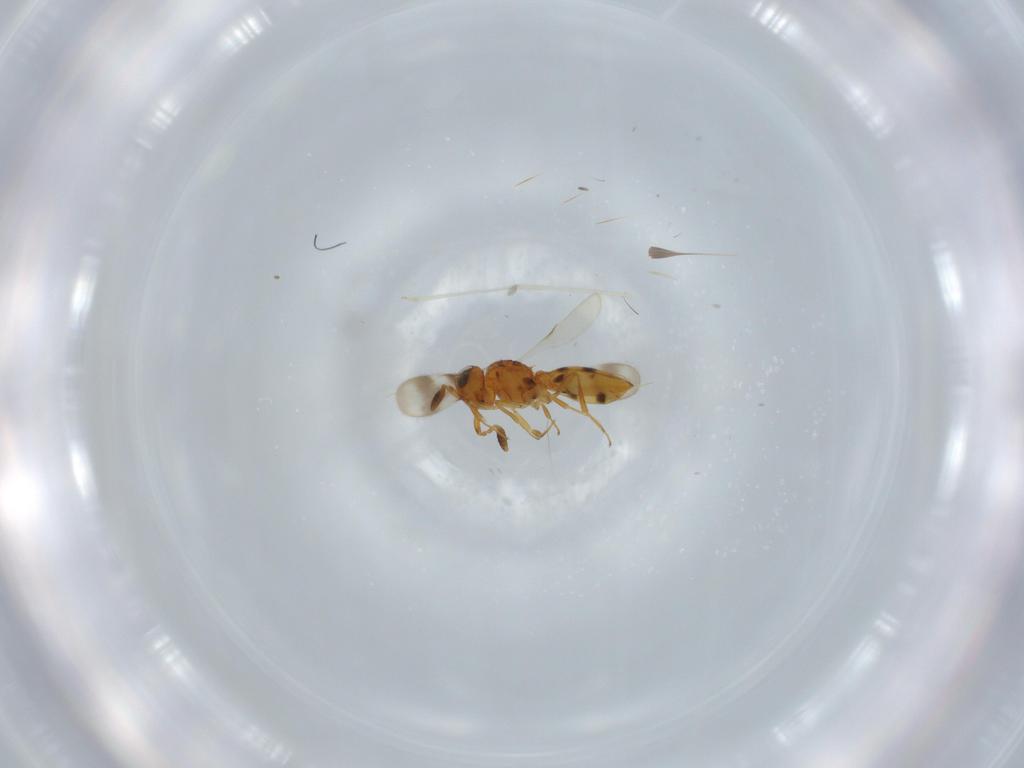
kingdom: Animalia
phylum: Arthropoda
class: Insecta
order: Hymenoptera
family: Scelionidae
